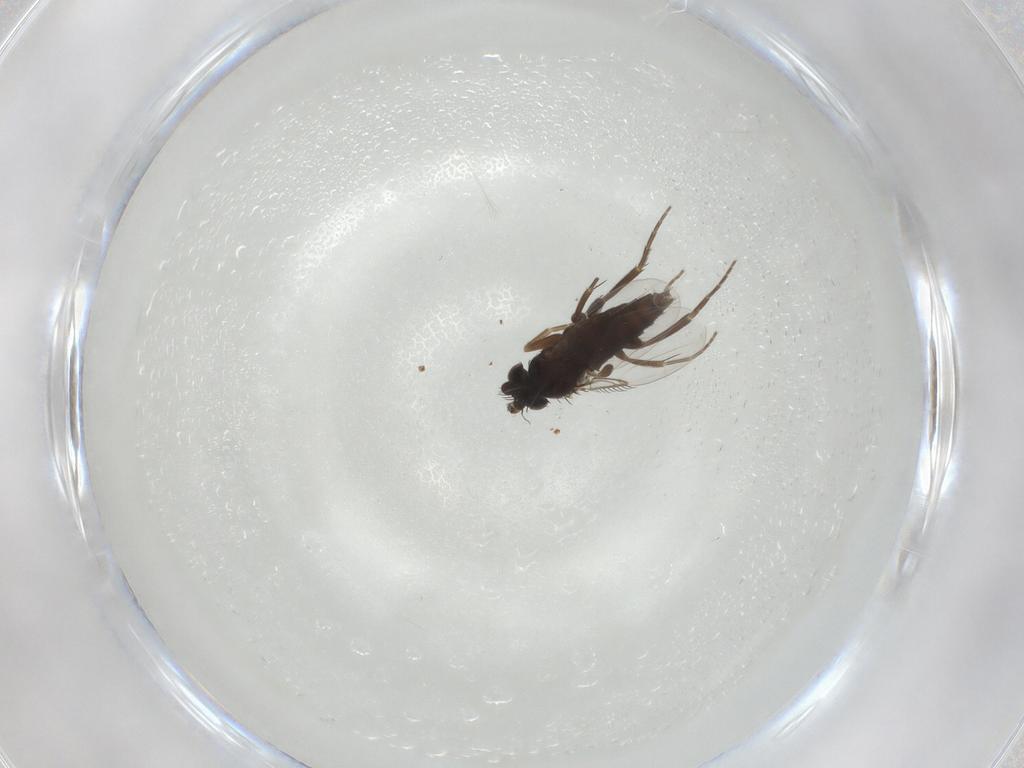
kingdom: Animalia
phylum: Arthropoda
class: Insecta
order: Diptera
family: Phoridae
